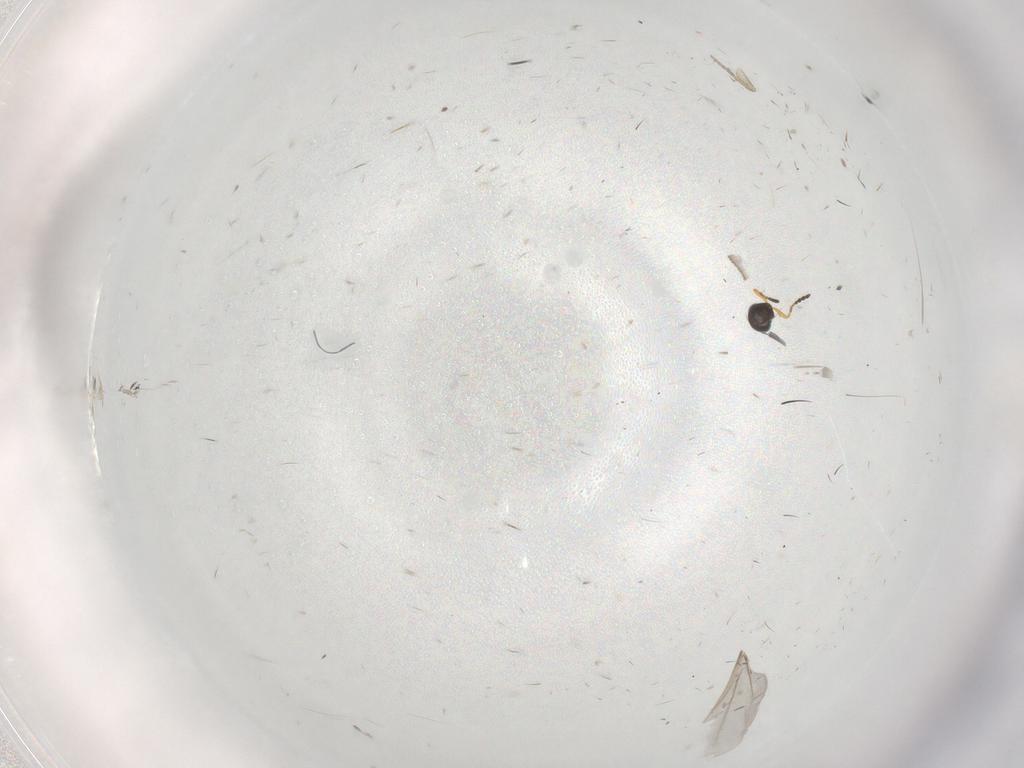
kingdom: Animalia
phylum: Arthropoda
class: Insecta
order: Hymenoptera
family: Platygastridae
